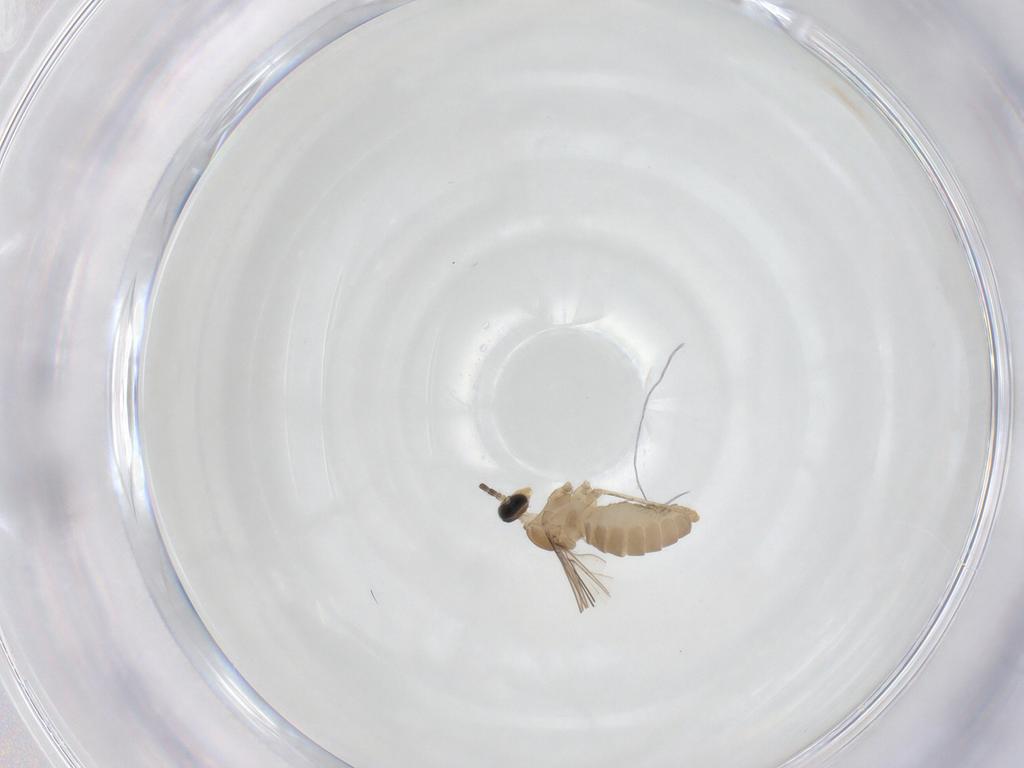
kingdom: Animalia
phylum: Arthropoda
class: Insecta
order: Diptera
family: Cecidomyiidae
